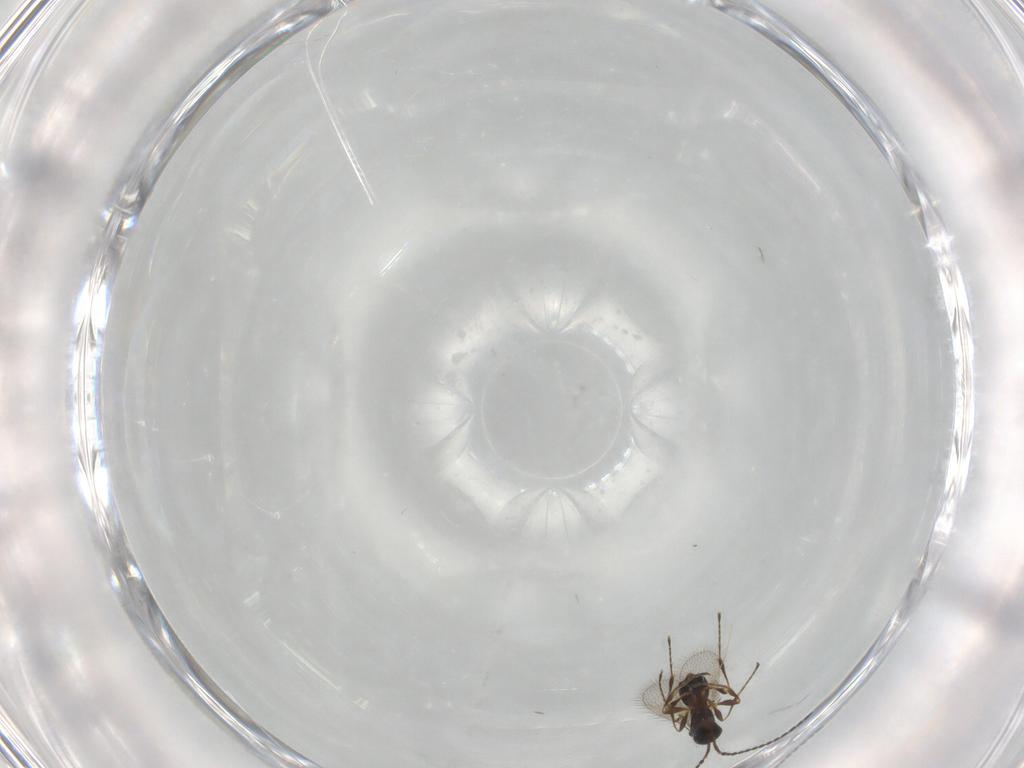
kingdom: Animalia
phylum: Arthropoda
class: Insecta
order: Hymenoptera
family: Diapriidae
